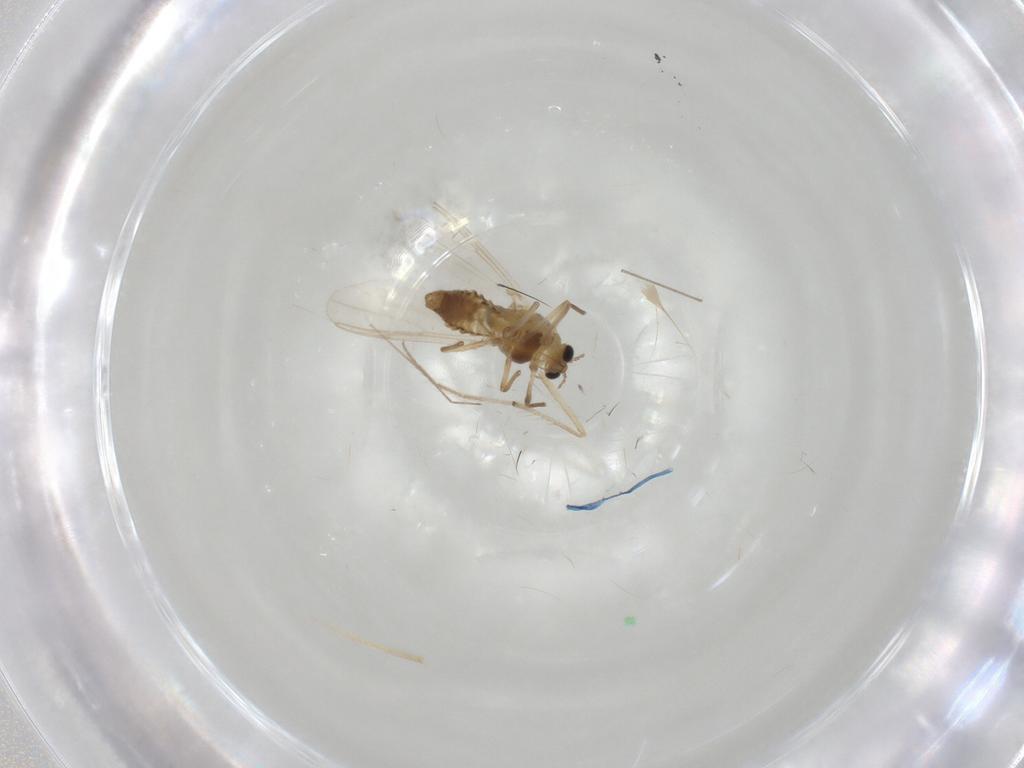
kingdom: Animalia
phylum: Arthropoda
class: Insecta
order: Diptera
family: Chironomidae
